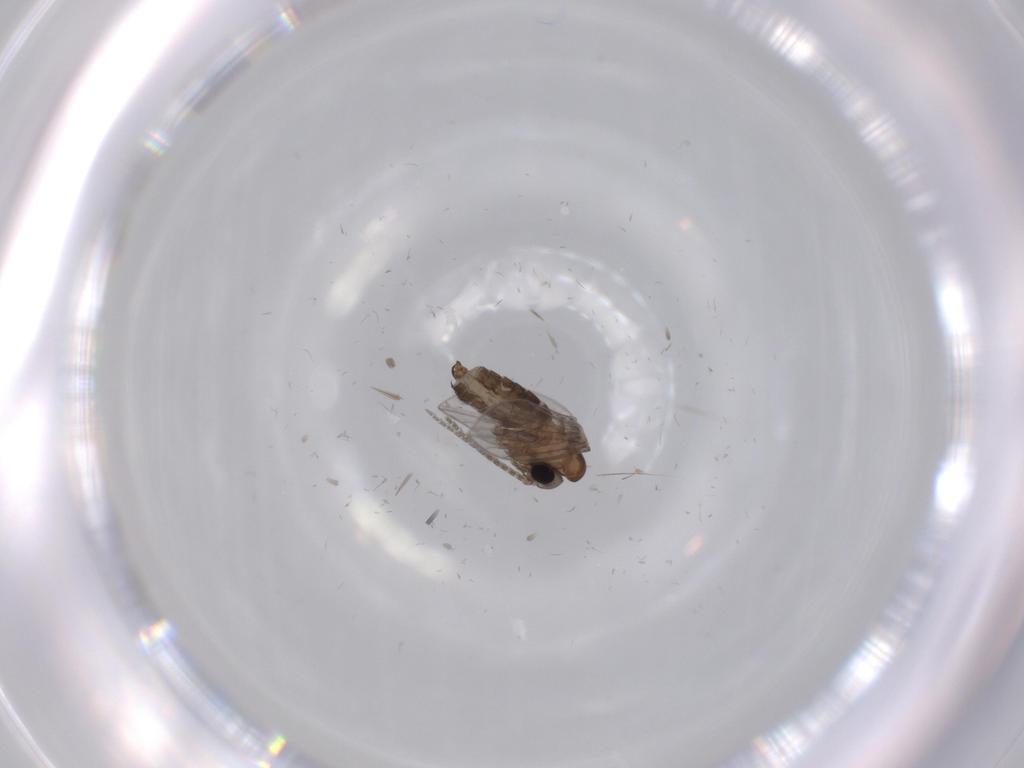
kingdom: Animalia
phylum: Arthropoda
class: Insecta
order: Diptera
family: Psychodidae
